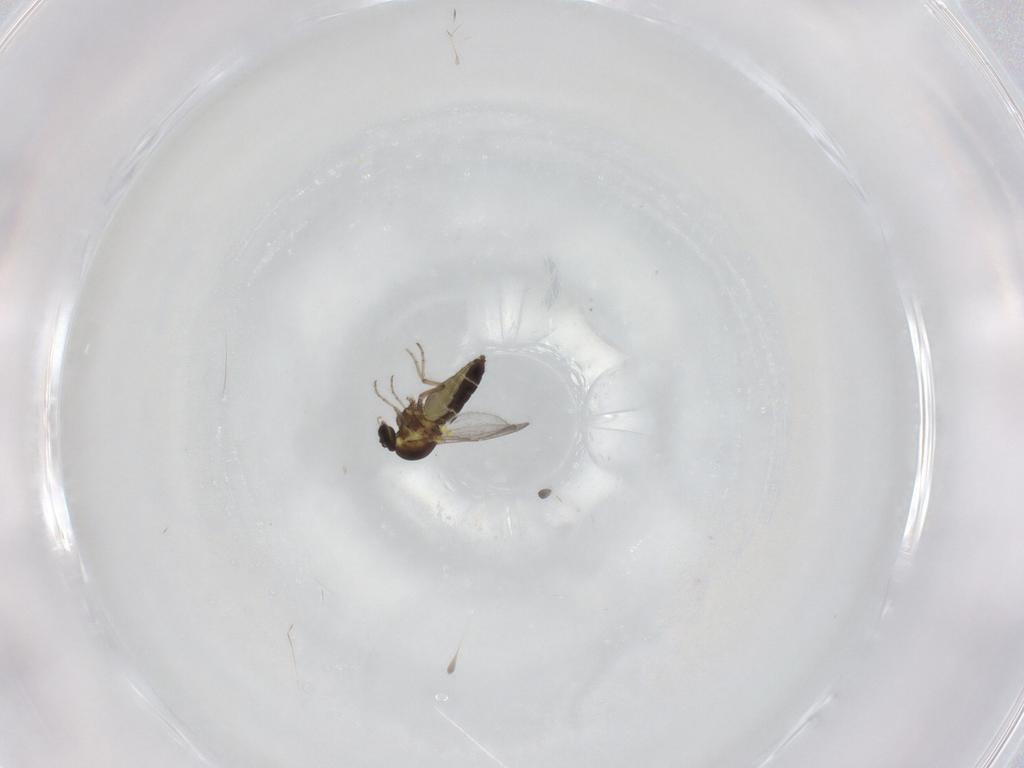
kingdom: Animalia
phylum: Arthropoda
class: Insecta
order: Diptera
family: Ceratopogonidae
